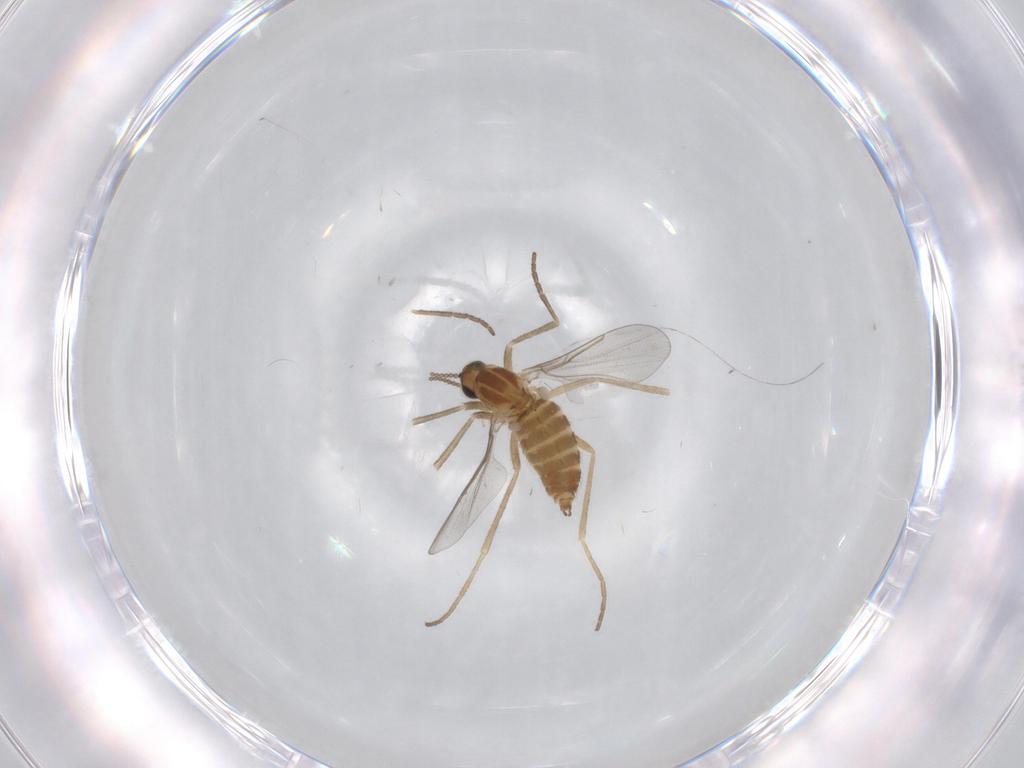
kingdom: Animalia
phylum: Arthropoda
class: Insecta
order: Diptera
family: Cecidomyiidae
